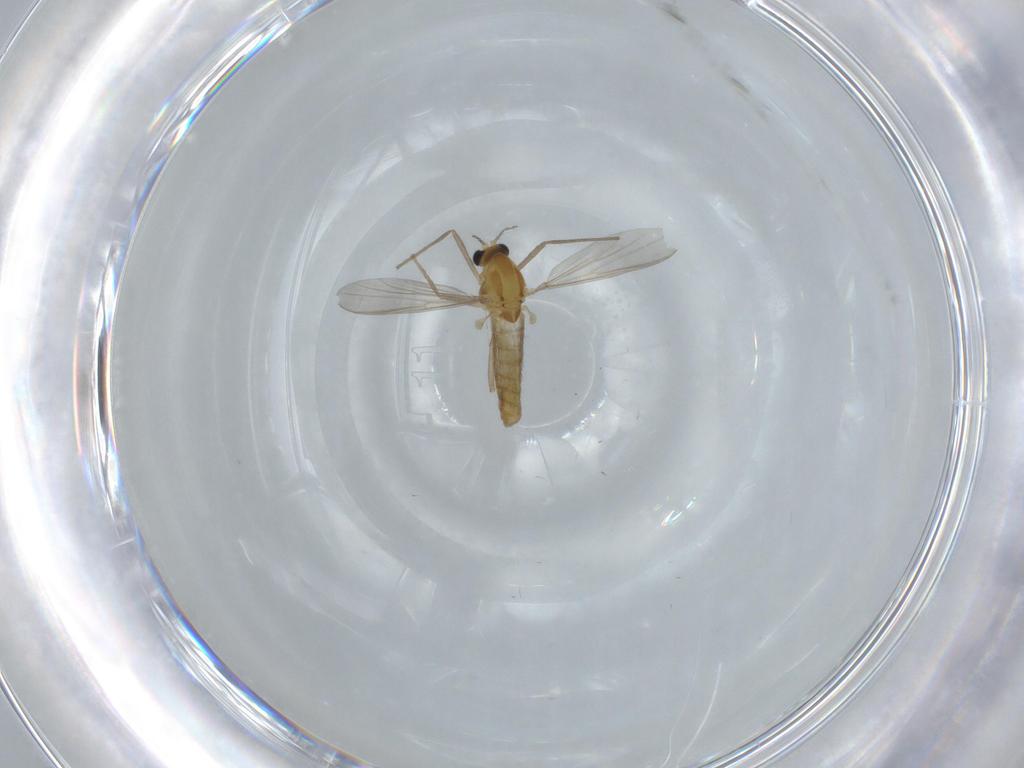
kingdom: Animalia
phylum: Arthropoda
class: Insecta
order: Diptera
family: Chironomidae
